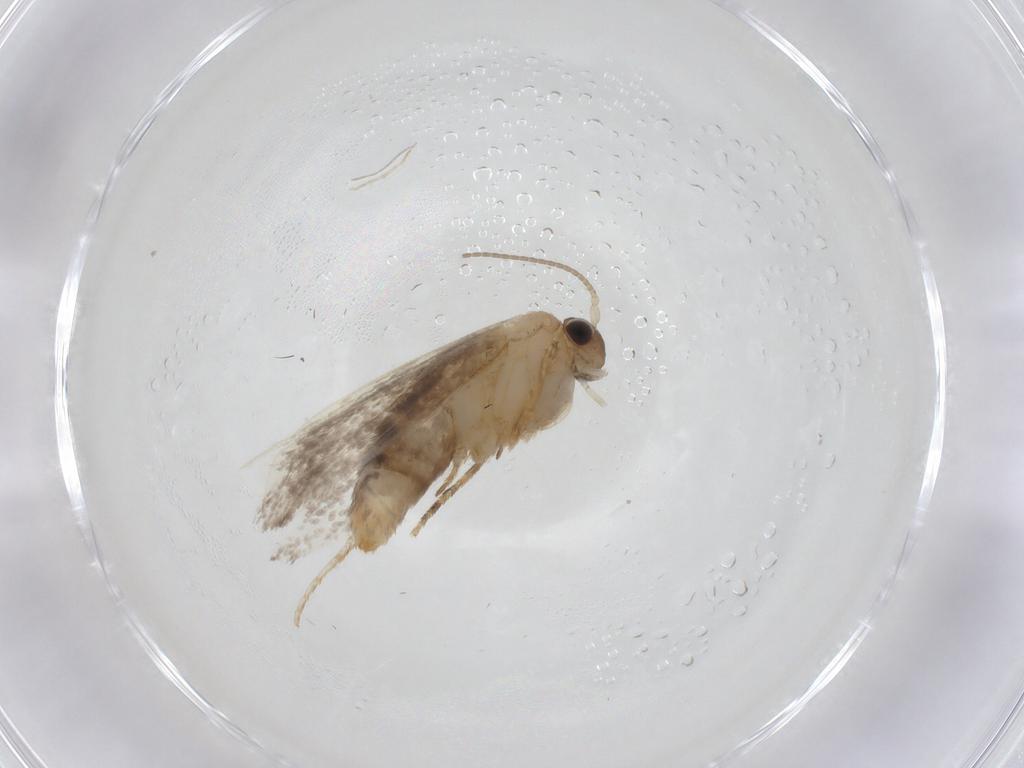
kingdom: Animalia
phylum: Arthropoda
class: Insecta
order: Lepidoptera
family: Dryadaulidae
